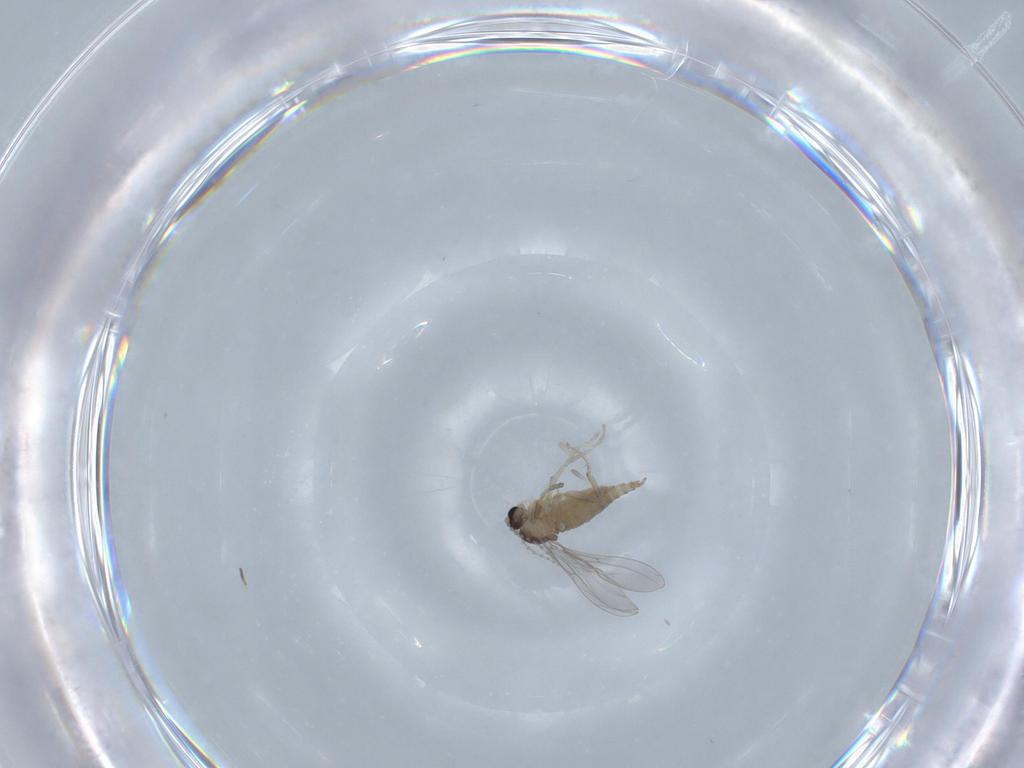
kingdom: Animalia
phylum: Arthropoda
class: Insecta
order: Diptera
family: Cecidomyiidae
